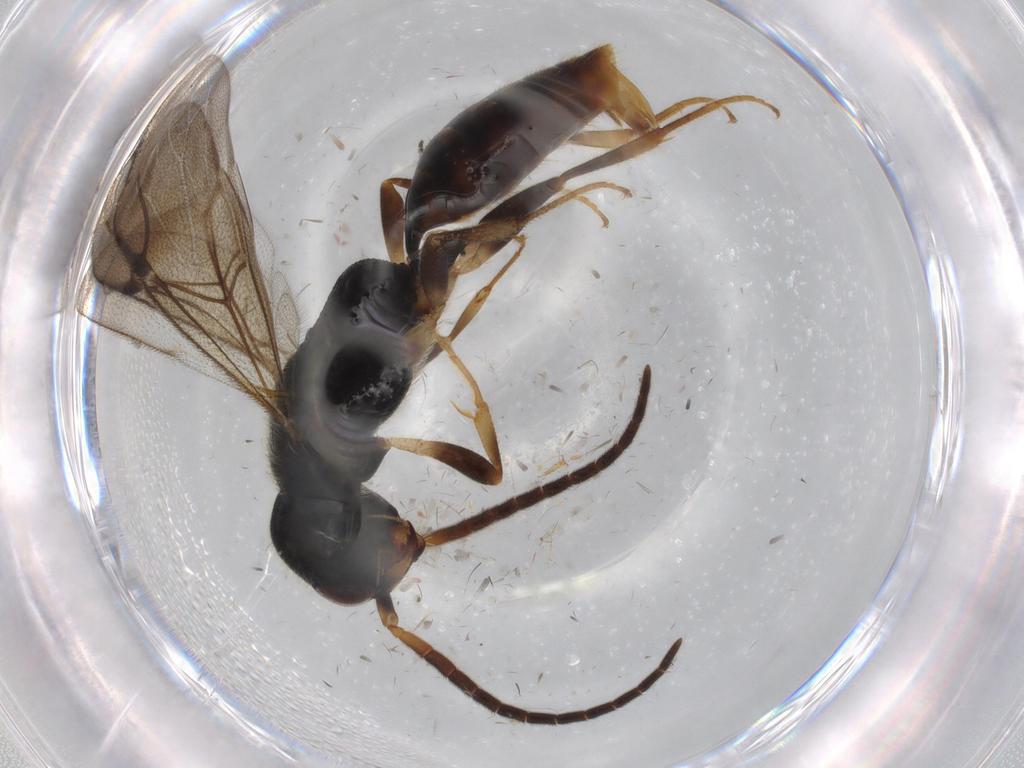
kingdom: Animalia
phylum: Arthropoda
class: Insecta
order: Hymenoptera
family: Bethylidae
